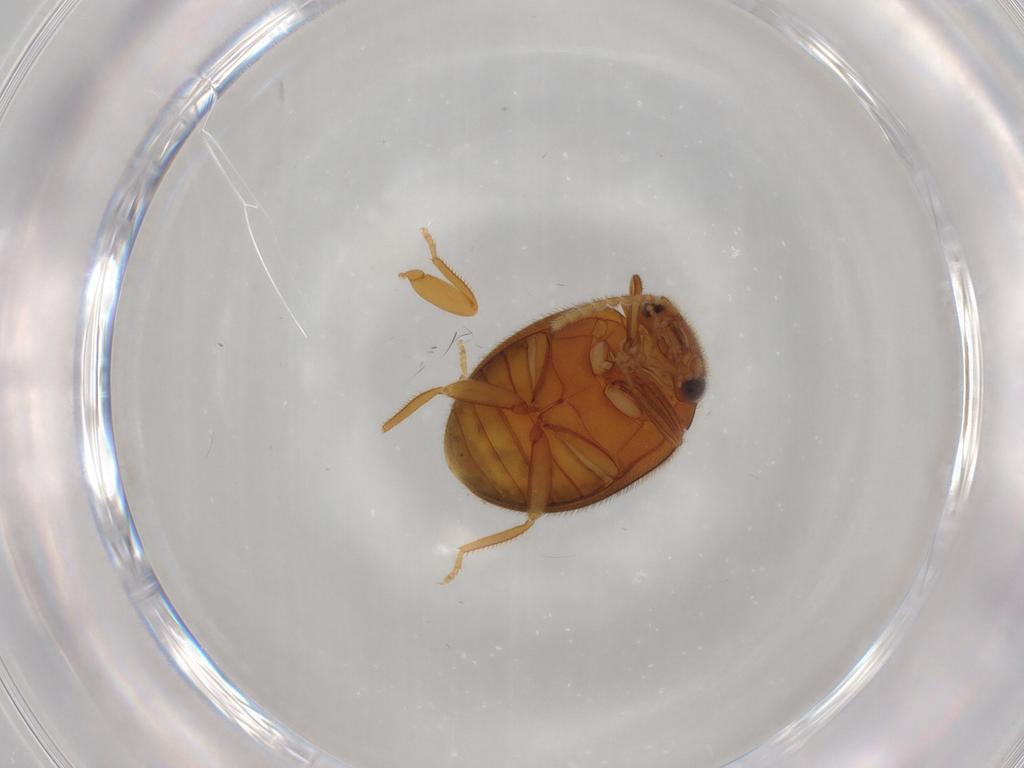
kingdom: Animalia
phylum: Arthropoda
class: Insecta
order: Coleoptera
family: Scirtidae
